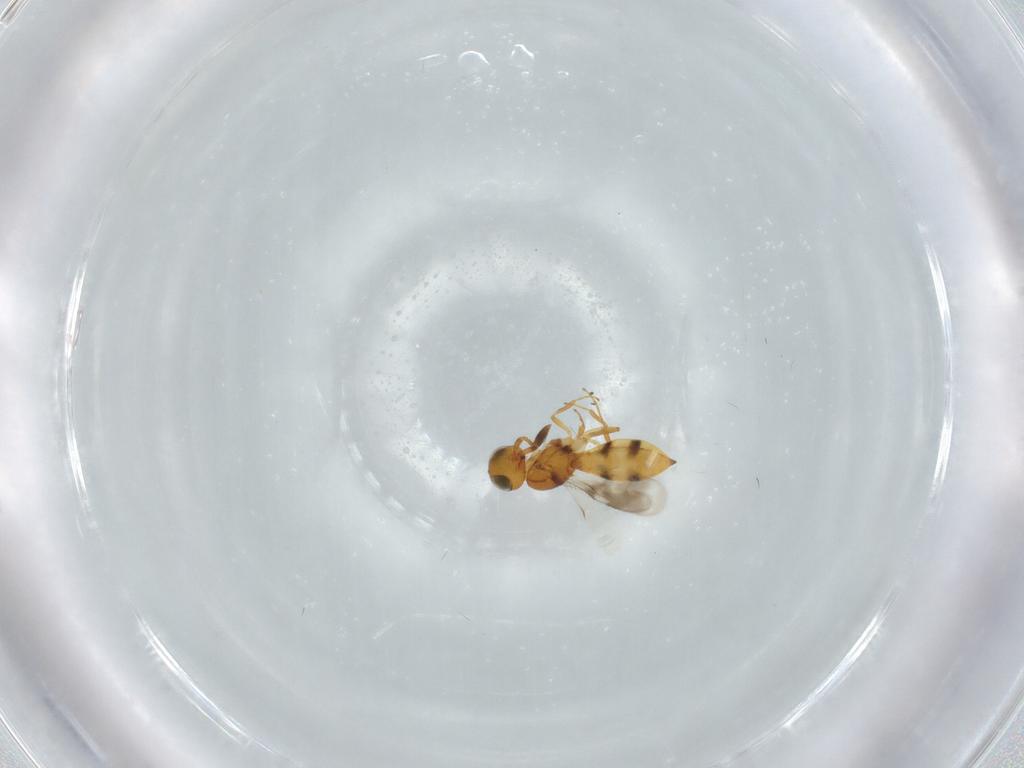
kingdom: Animalia
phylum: Arthropoda
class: Insecta
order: Hymenoptera
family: Scelionidae
